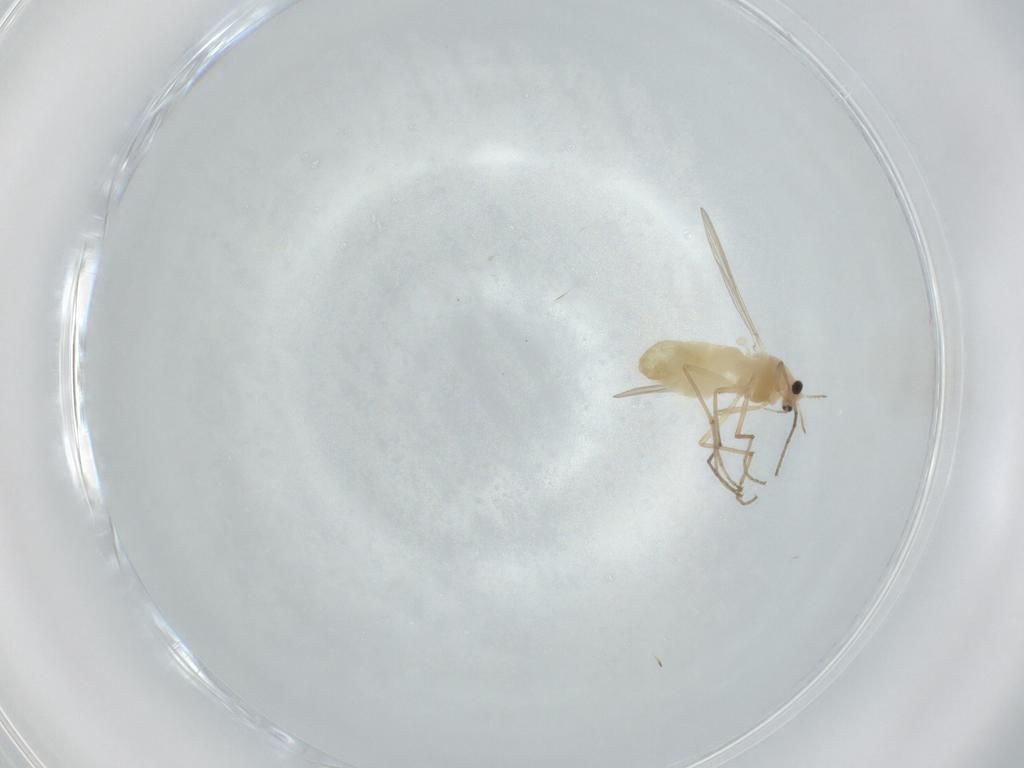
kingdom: Animalia
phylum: Arthropoda
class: Insecta
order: Diptera
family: Chironomidae
